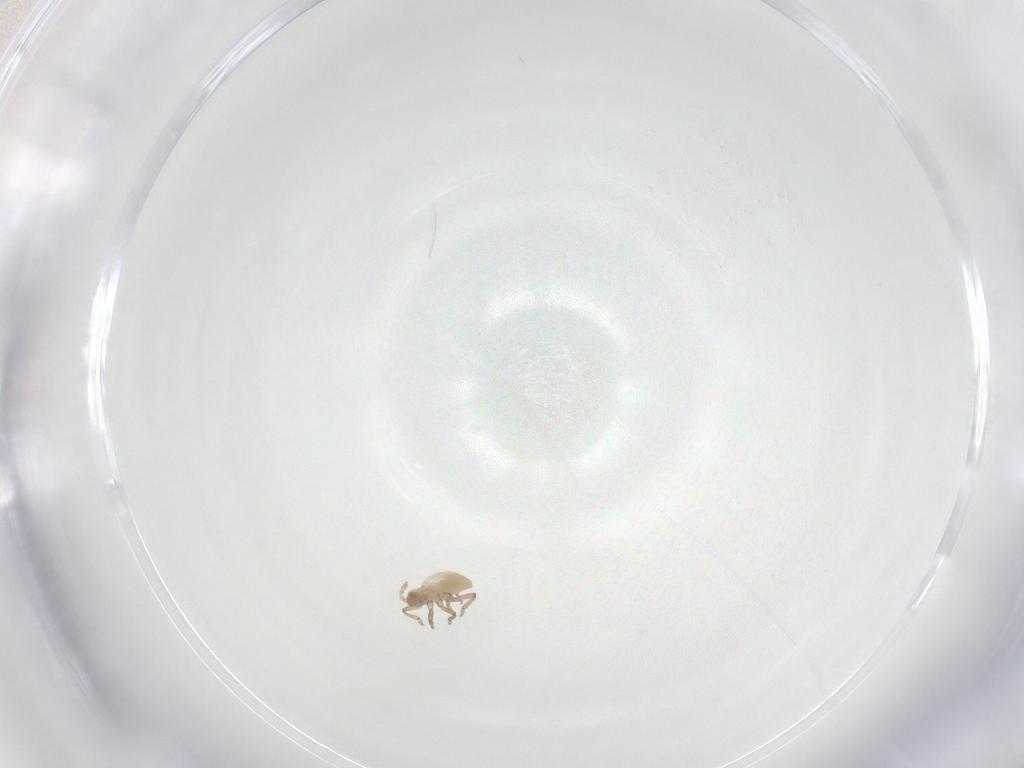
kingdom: Animalia
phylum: Arthropoda
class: Insecta
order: Hemiptera
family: Aphididae
